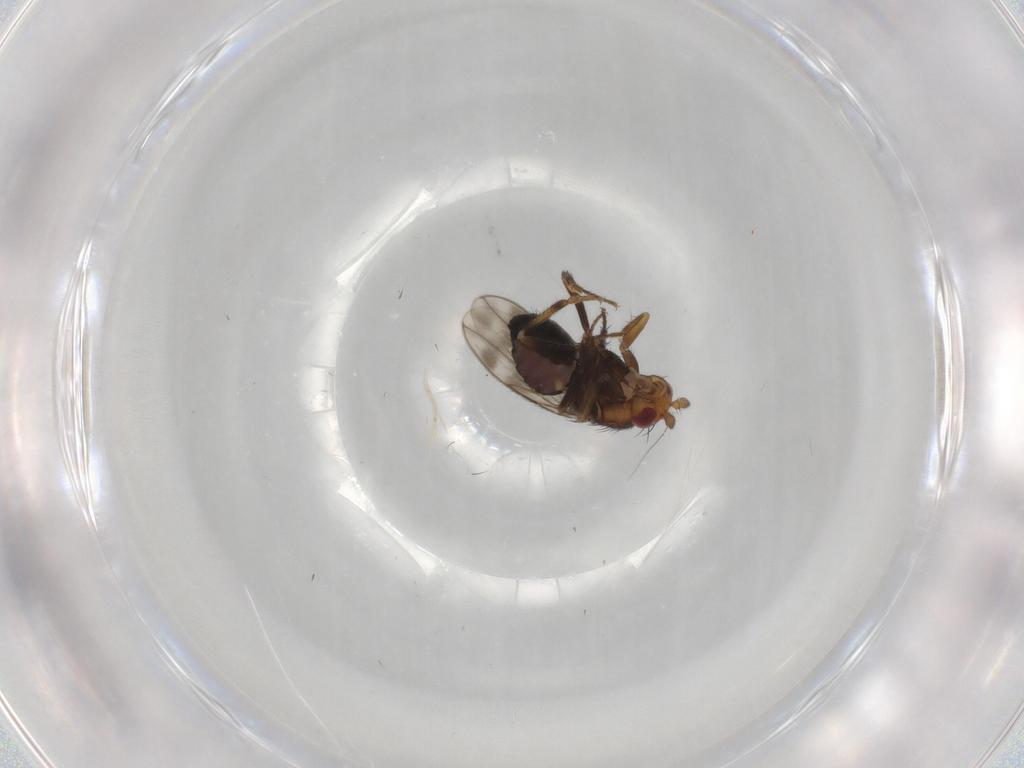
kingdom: Animalia
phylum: Arthropoda
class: Insecta
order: Diptera
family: Sphaeroceridae
